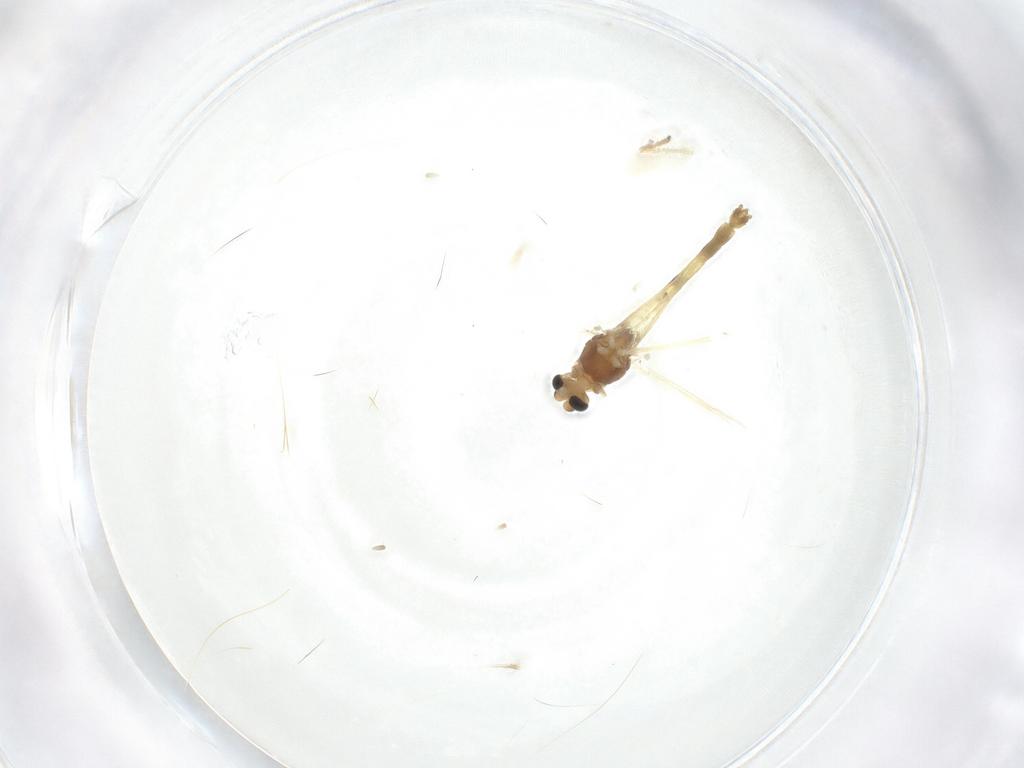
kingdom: Animalia
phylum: Arthropoda
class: Insecta
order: Diptera
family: Chironomidae
